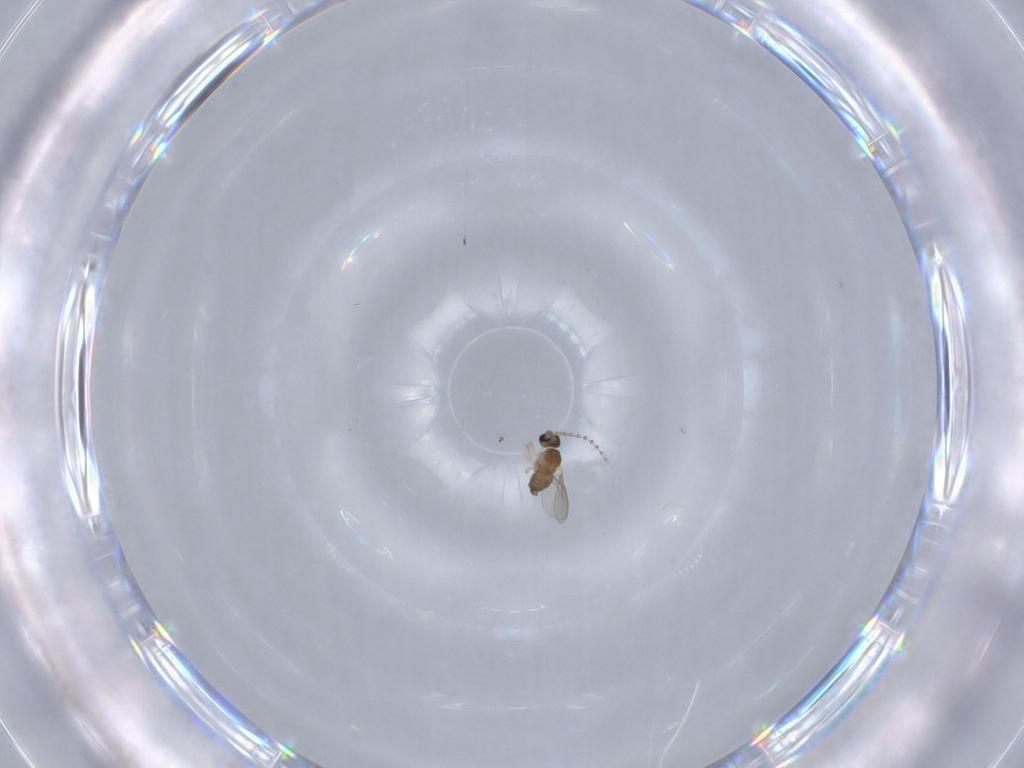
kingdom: Animalia
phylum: Arthropoda
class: Insecta
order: Diptera
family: Cecidomyiidae
